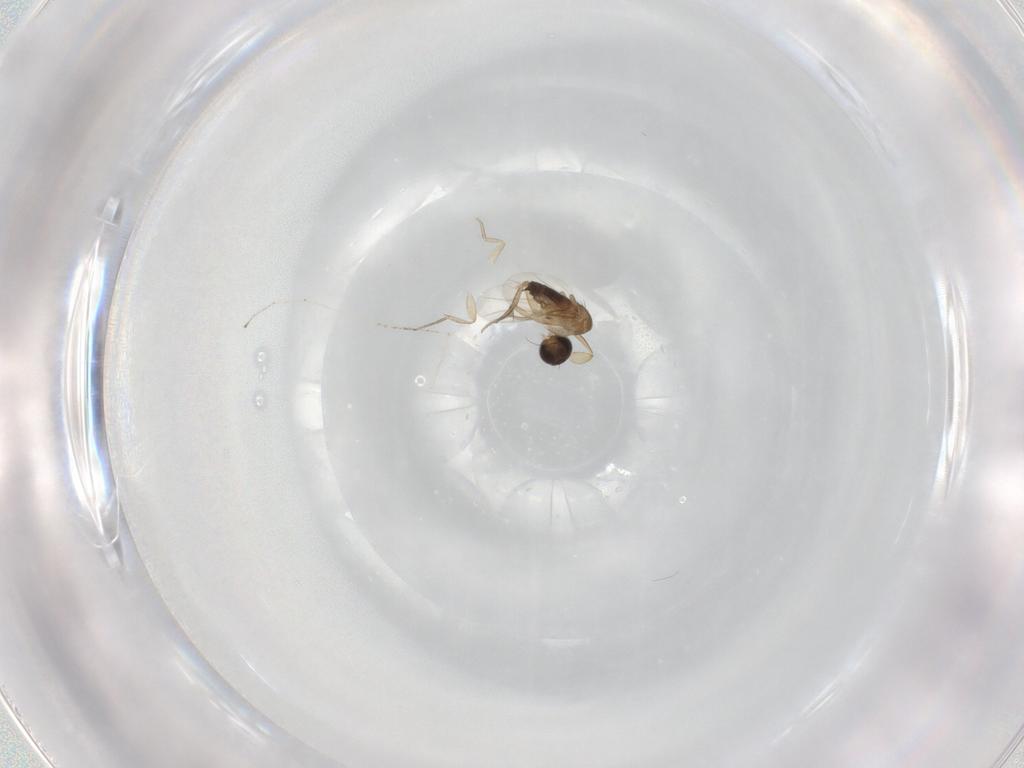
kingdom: Animalia
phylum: Arthropoda
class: Insecta
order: Diptera
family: Phoridae
